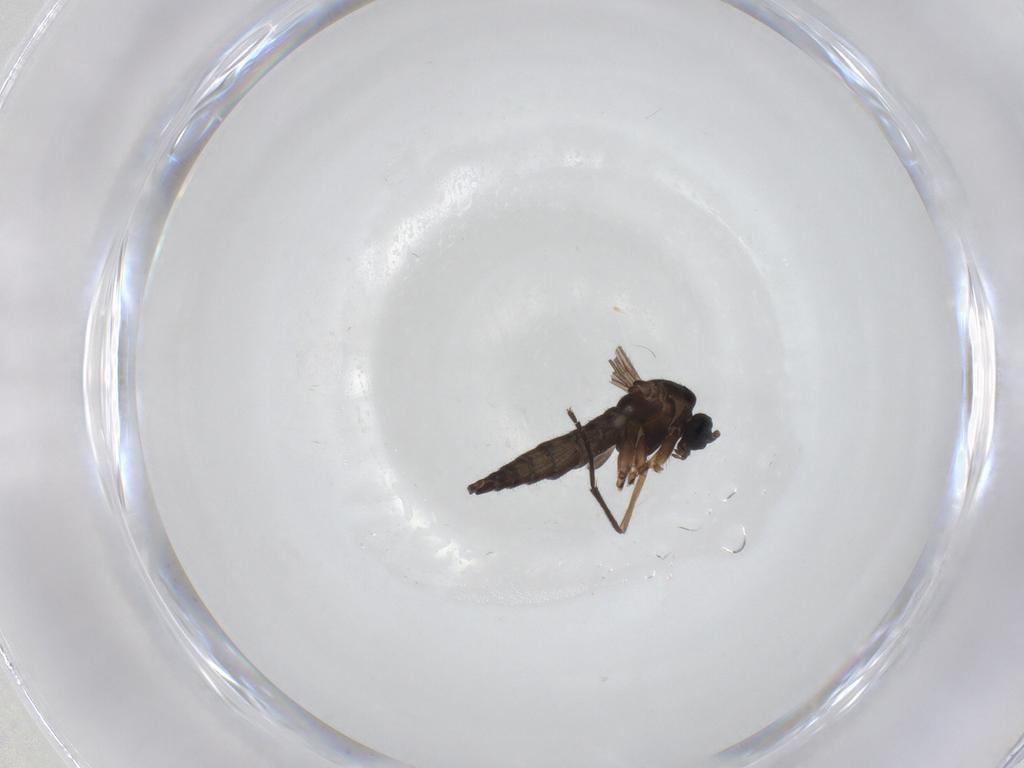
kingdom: Animalia
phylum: Arthropoda
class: Insecta
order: Diptera
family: Sciaridae
